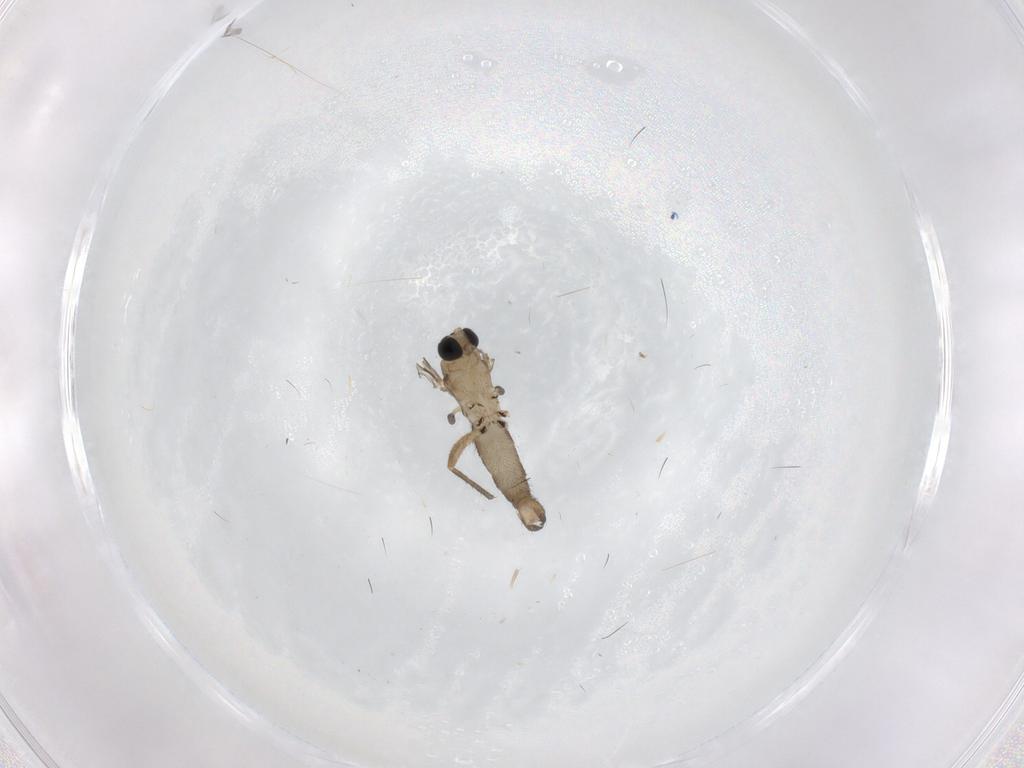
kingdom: Animalia
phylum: Arthropoda
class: Insecta
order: Diptera
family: Sciaridae
